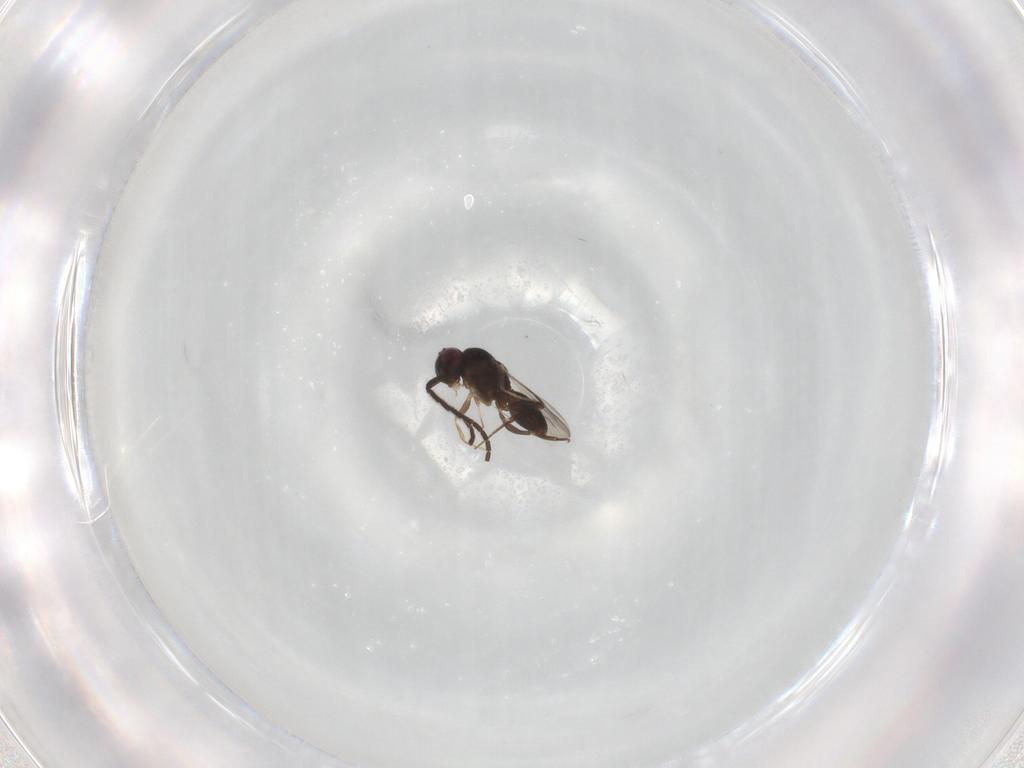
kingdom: Animalia
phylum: Arthropoda
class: Insecta
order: Hymenoptera
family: Megaspilidae
